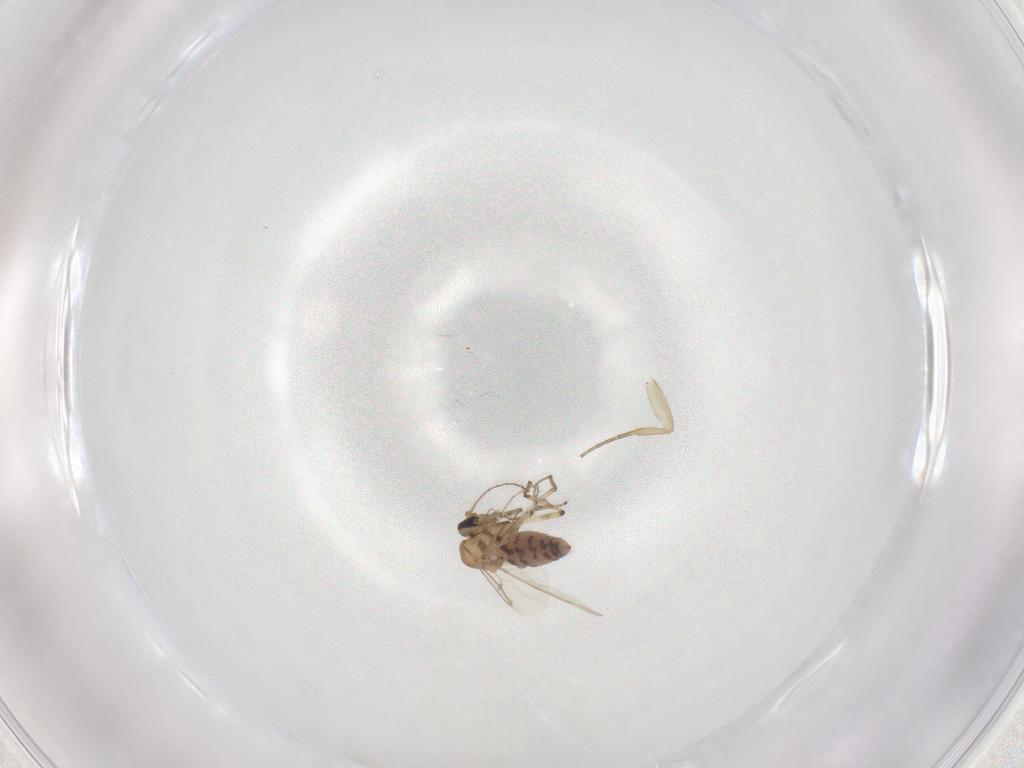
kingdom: Animalia
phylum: Arthropoda
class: Insecta
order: Diptera
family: Ceratopogonidae
